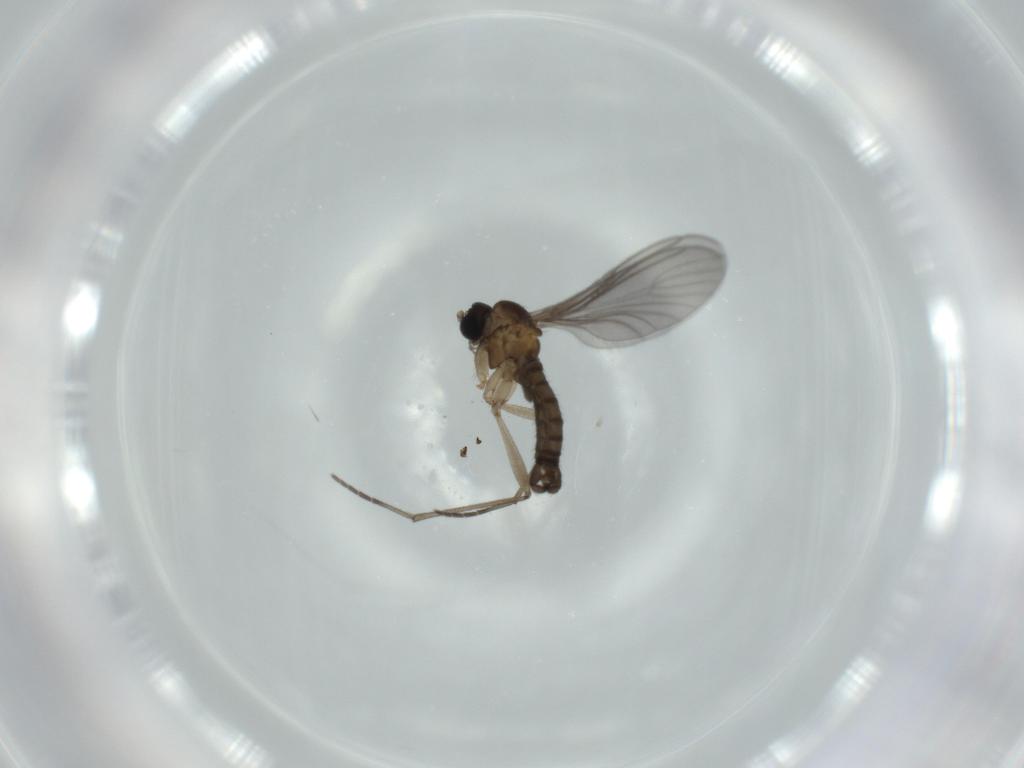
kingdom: Animalia
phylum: Arthropoda
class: Insecta
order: Diptera
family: Sciaridae
